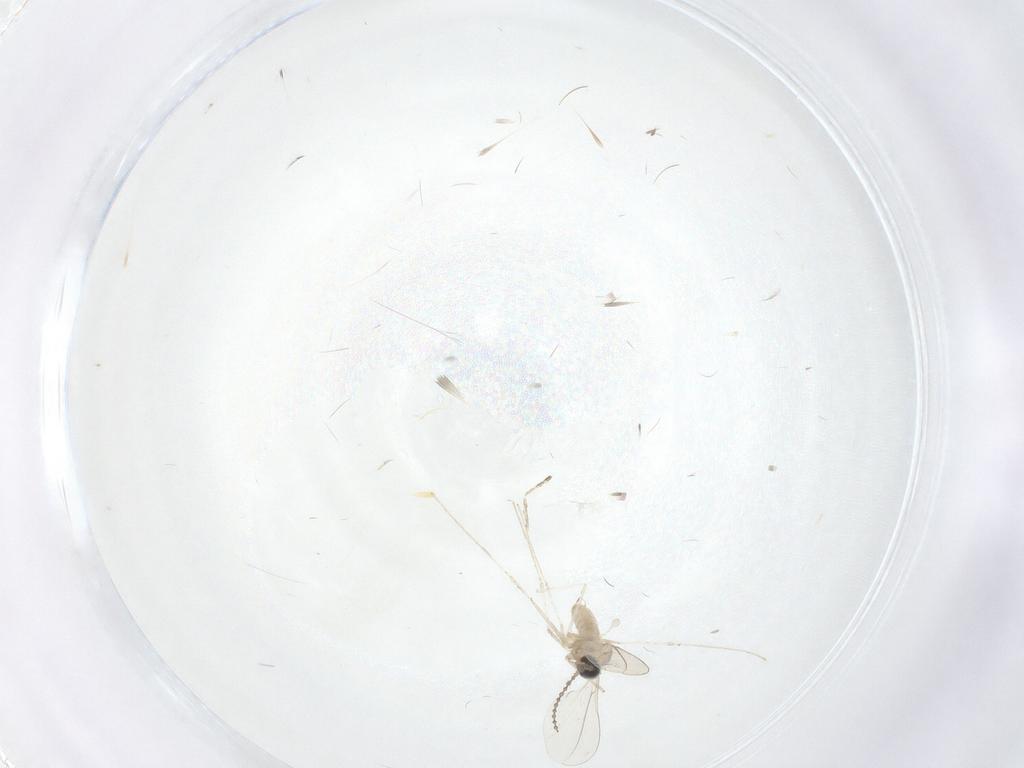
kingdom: Animalia
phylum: Arthropoda
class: Insecta
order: Diptera
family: Cecidomyiidae
